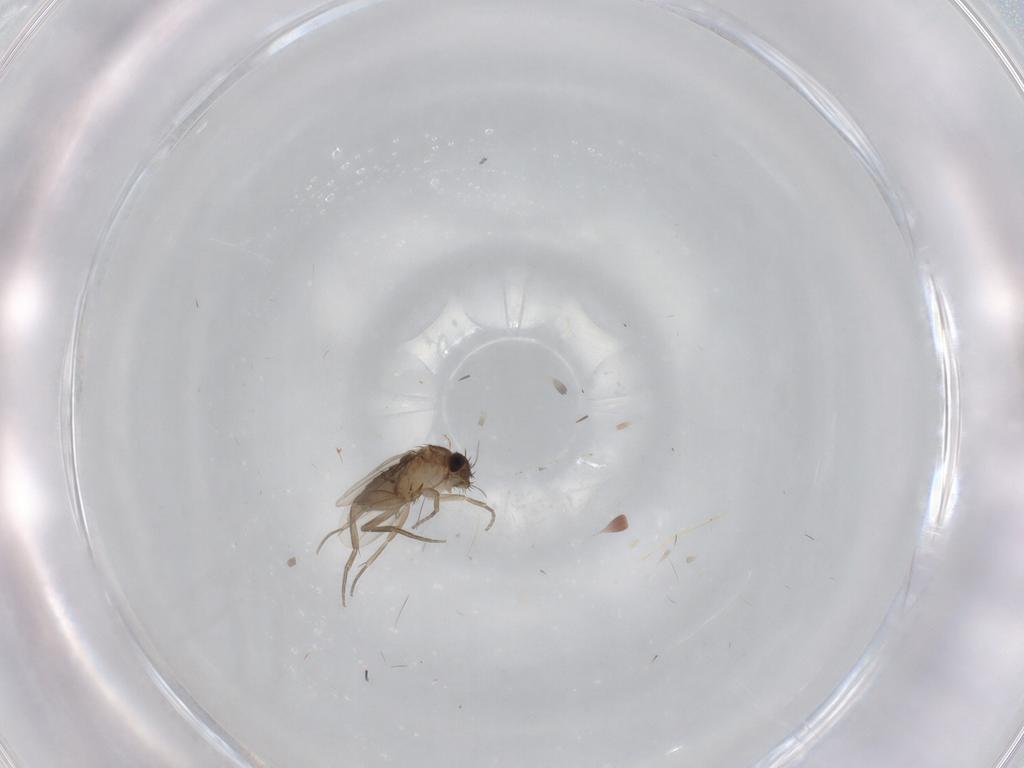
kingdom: Animalia
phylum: Arthropoda
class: Insecta
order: Diptera
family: Phoridae
